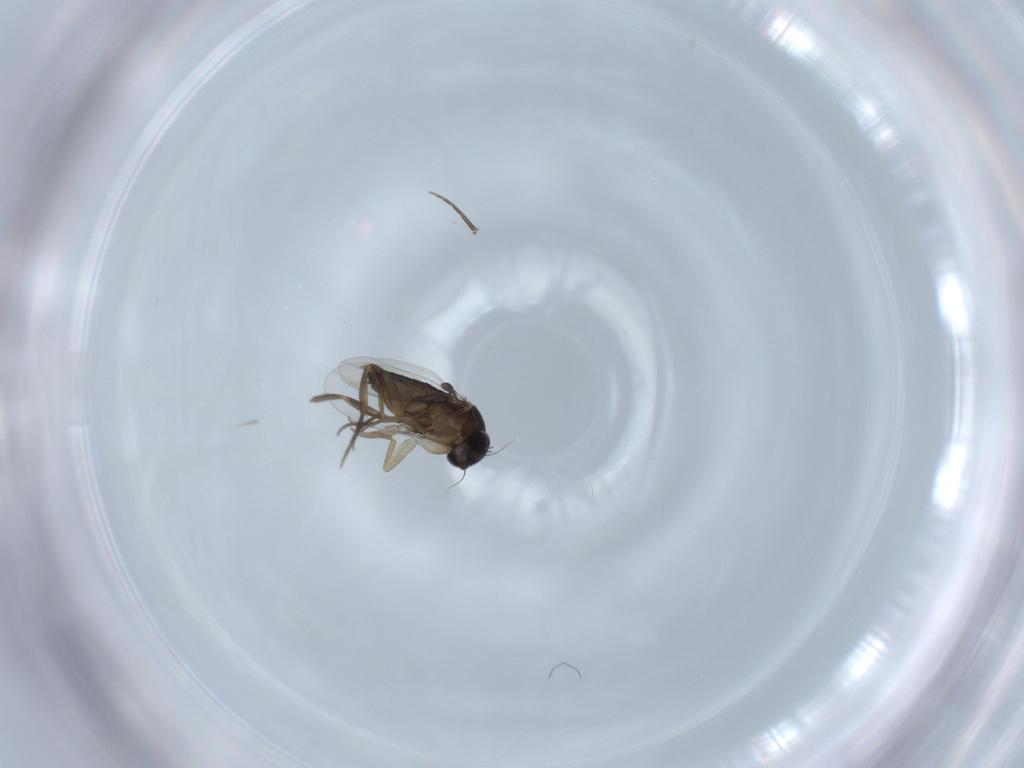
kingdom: Animalia
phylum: Arthropoda
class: Insecta
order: Diptera
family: Phoridae
